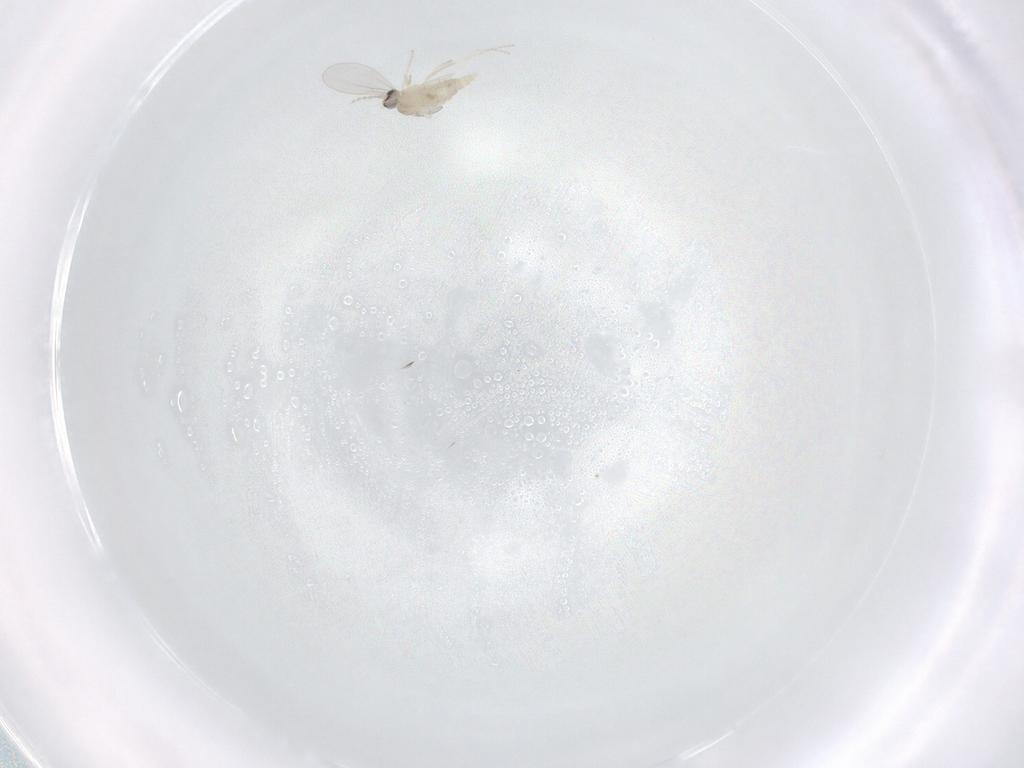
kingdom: Animalia
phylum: Arthropoda
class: Insecta
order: Diptera
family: Cecidomyiidae
